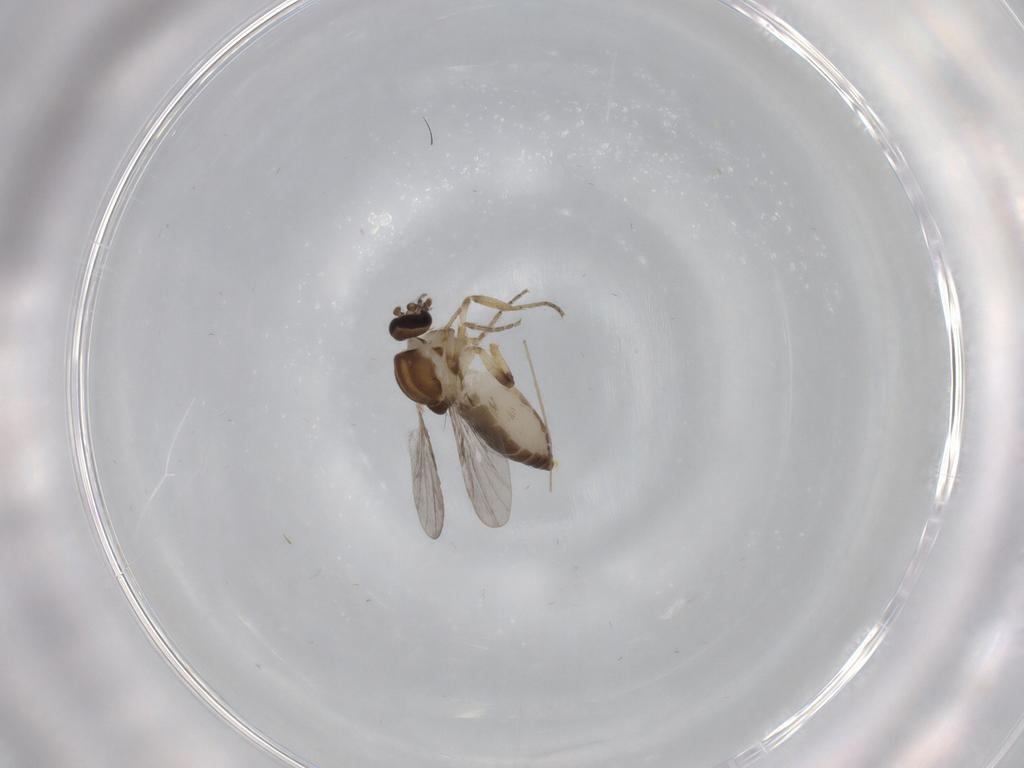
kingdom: Animalia
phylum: Arthropoda
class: Insecta
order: Diptera
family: Ceratopogonidae
